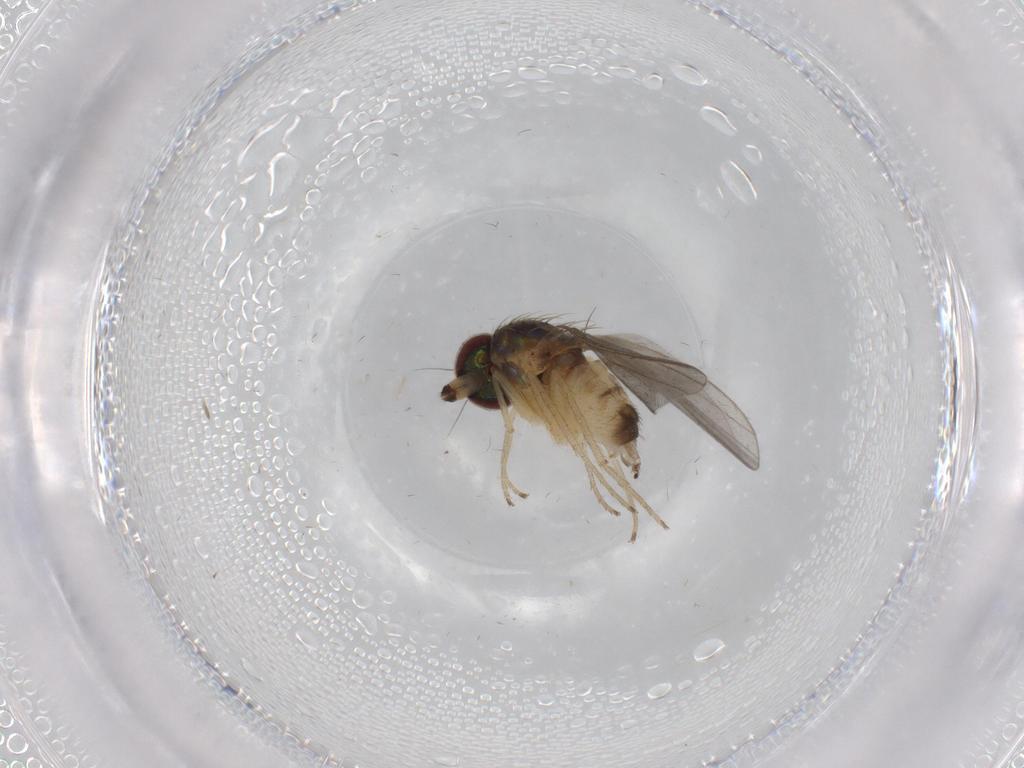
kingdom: Animalia
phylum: Arthropoda
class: Insecta
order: Diptera
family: Dolichopodidae
